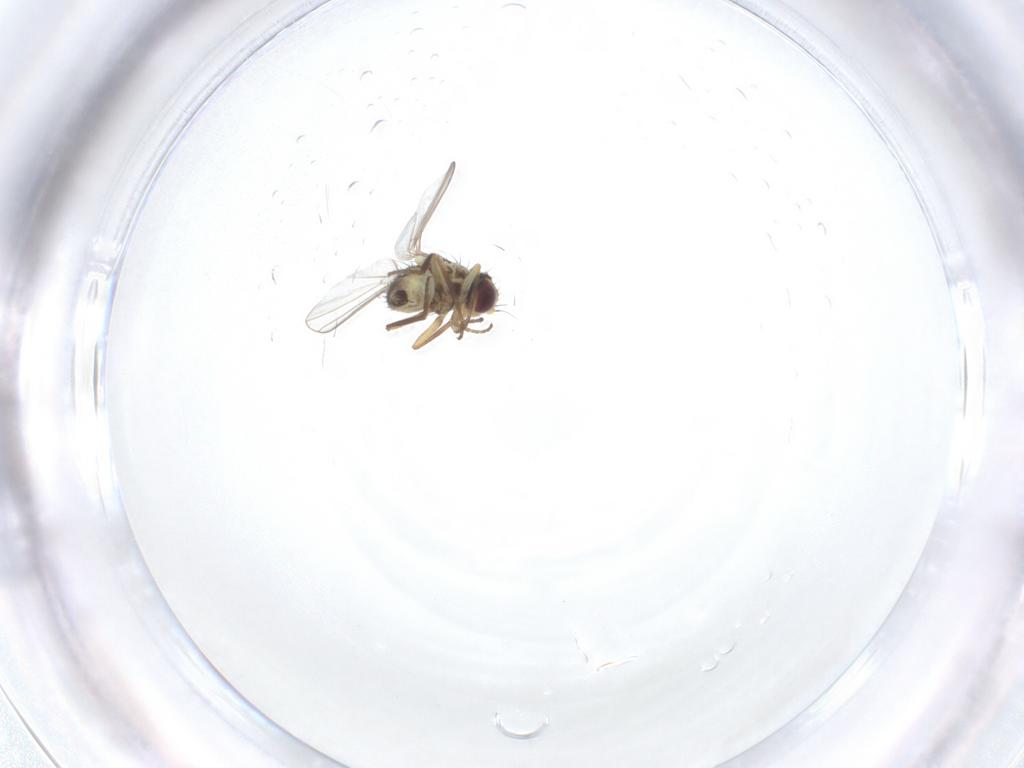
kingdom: Animalia
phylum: Arthropoda
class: Insecta
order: Diptera
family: Agromyzidae
